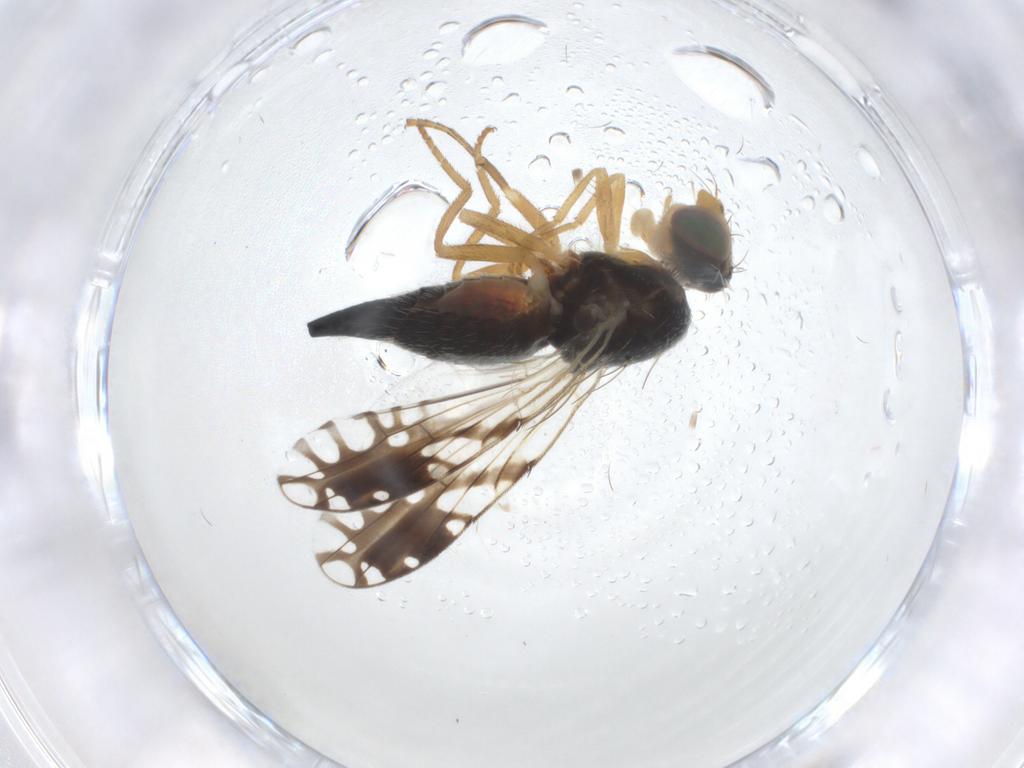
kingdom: Animalia
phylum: Arthropoda
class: Insecta
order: Diptera
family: Tephritidae
